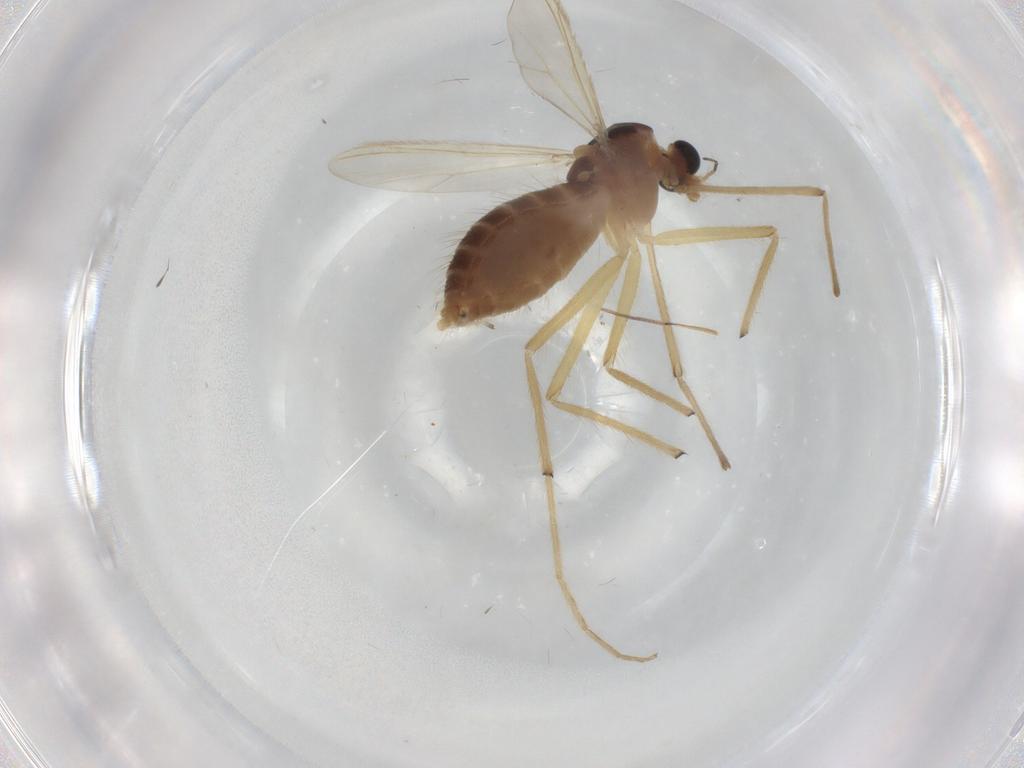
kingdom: Animalia
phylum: Arthropoda
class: Insecta
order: Diptera
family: Chironomidae
